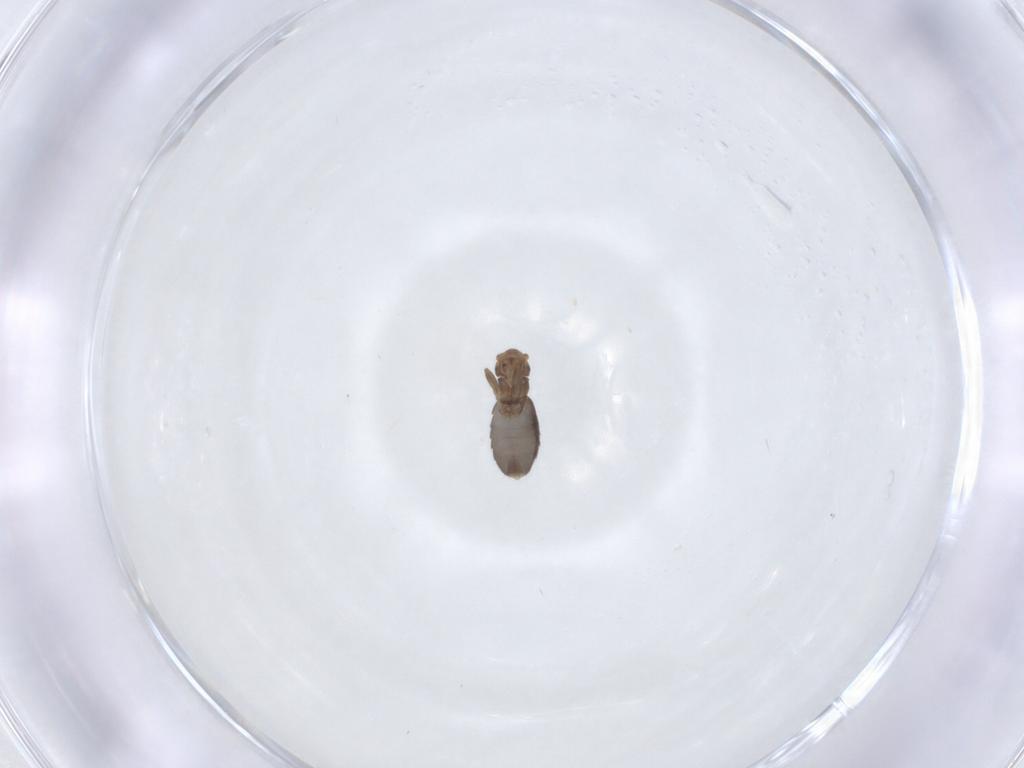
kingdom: Animalia
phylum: Arthropoda
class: Insecta
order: Diptera
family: Phoridae
